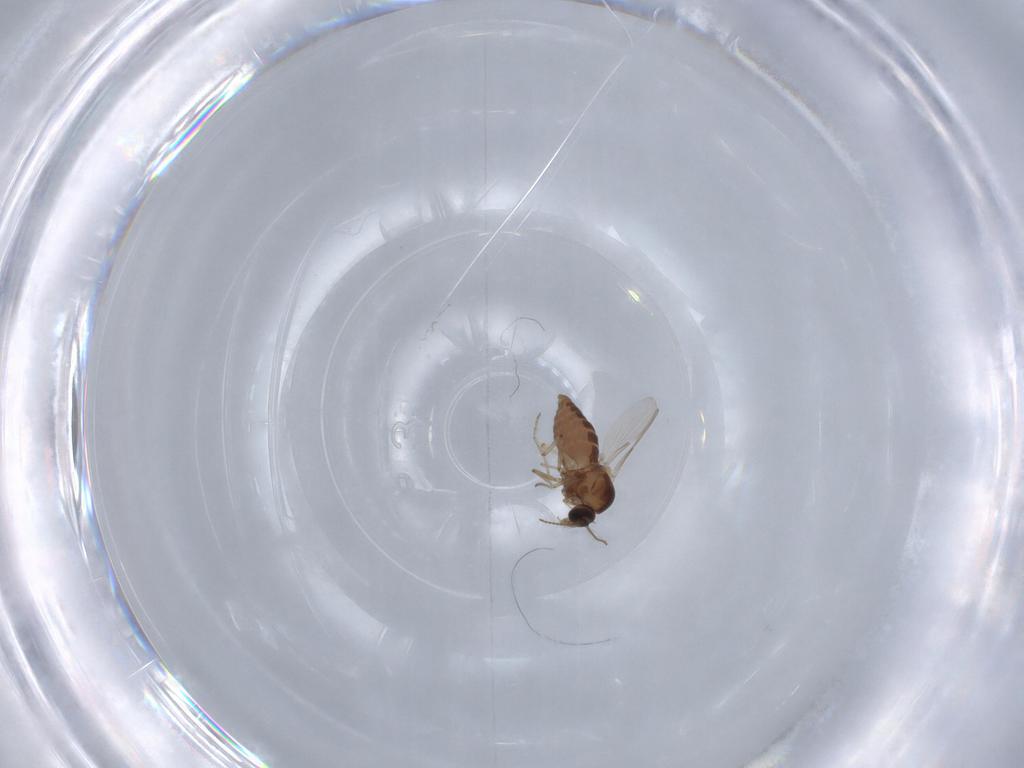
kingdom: Animalia
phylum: Arthropoda
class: Insecta
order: Diptera
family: Ceratopogonidae
